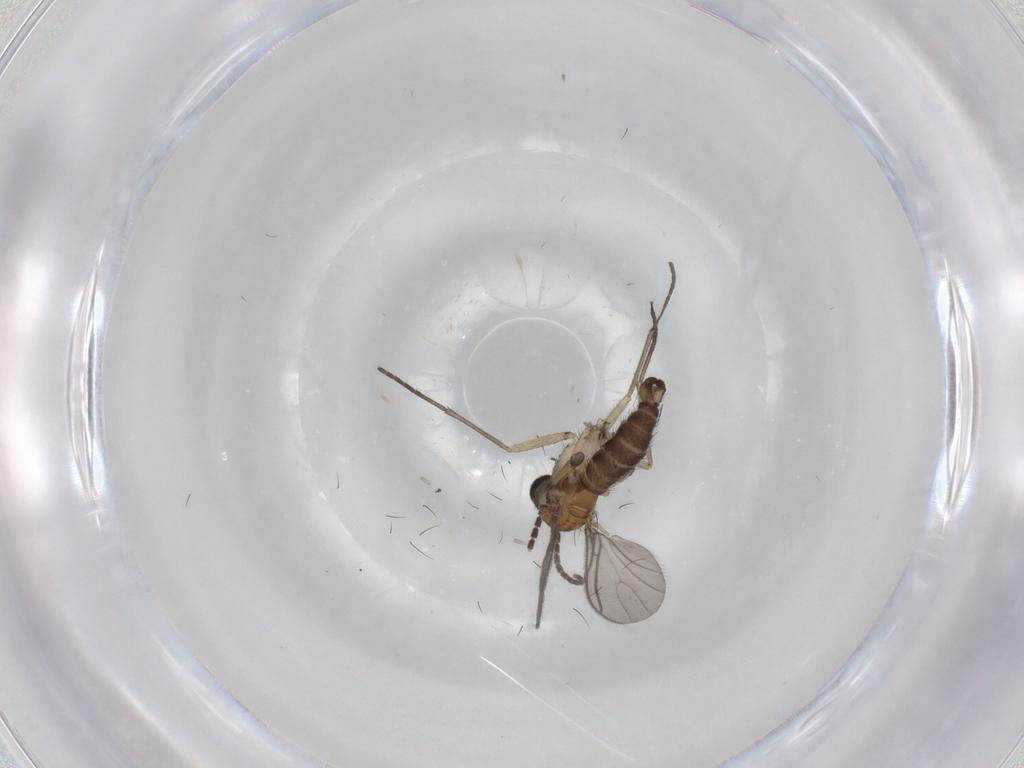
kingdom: Animalia
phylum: Arthropoda
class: Insecta
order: Diptera
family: Sciaridae
